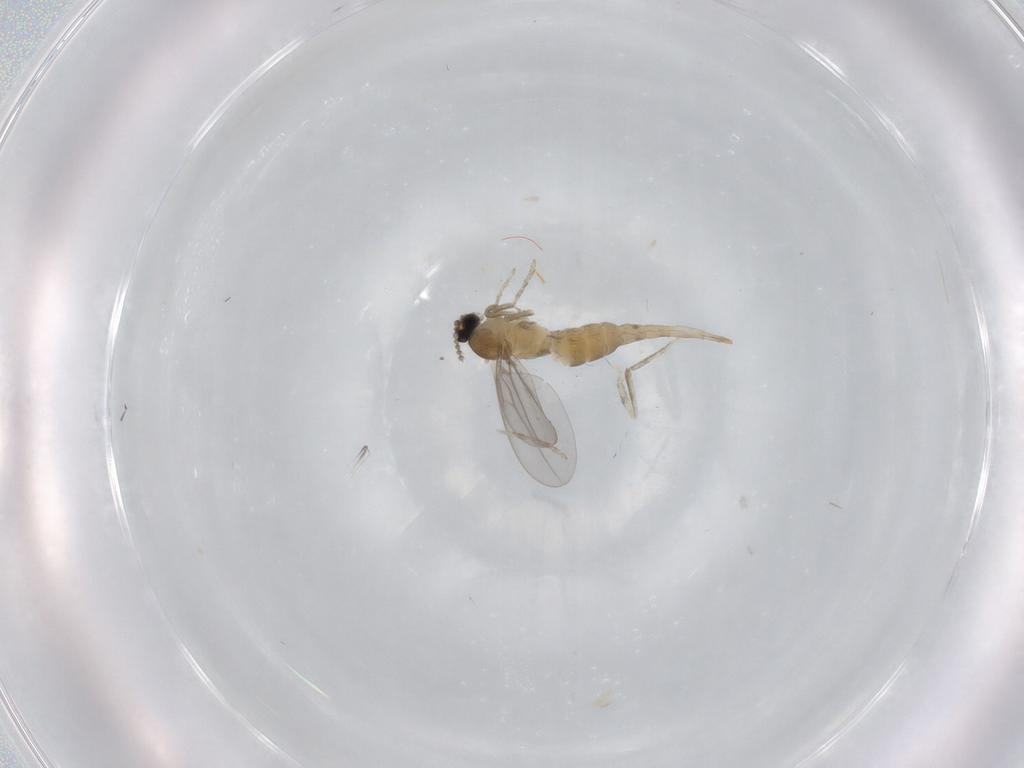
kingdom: Animalia
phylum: Arthropoda
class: Insecta
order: Diptera
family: Cecidomyiidae
